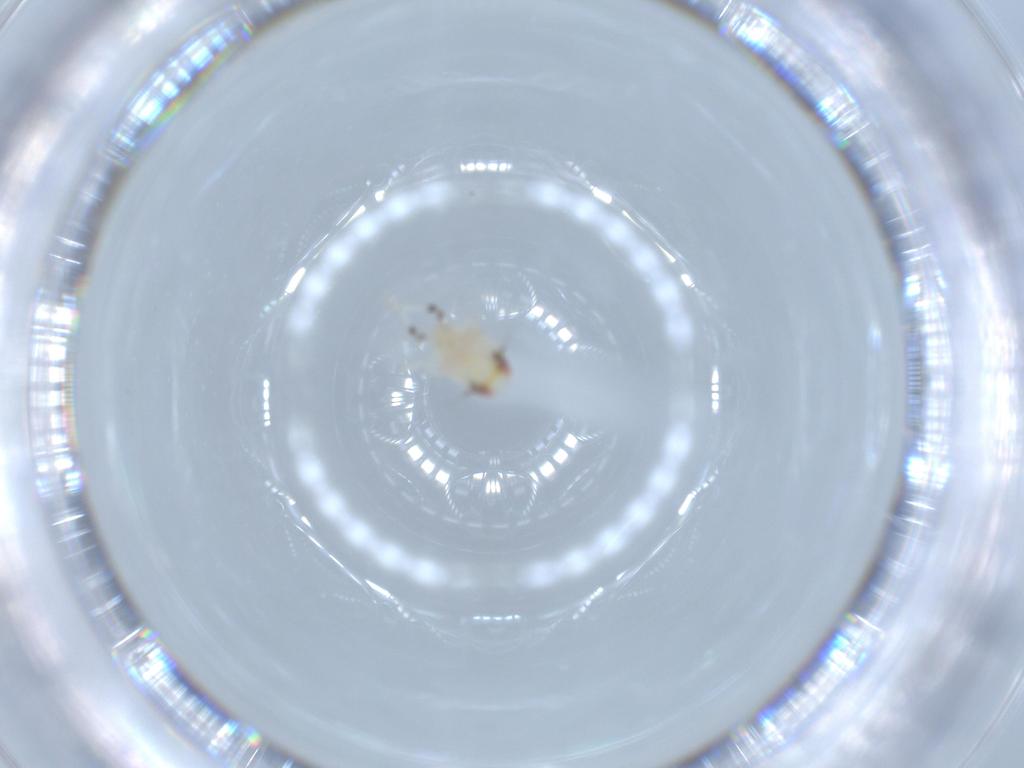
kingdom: Animalia
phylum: Arthropoda
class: Insecta
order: Hemiptera
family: Nogodinidae
